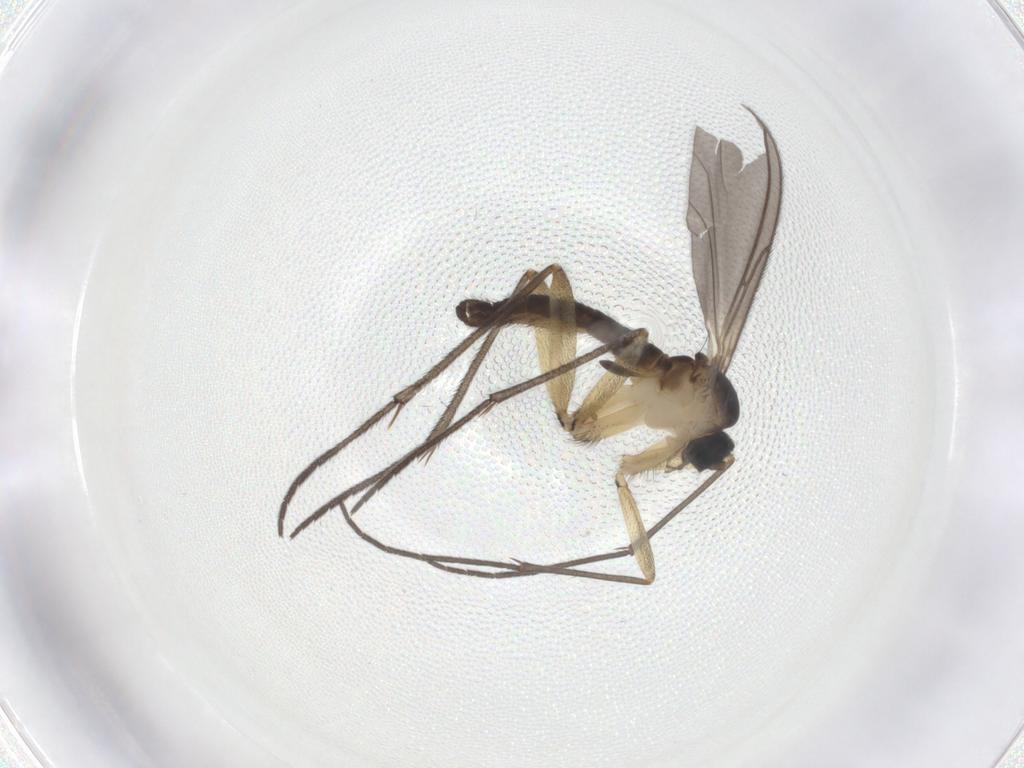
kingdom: Animalia
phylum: Arthropoda
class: Insecta
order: Diptera
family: Sciaridae
